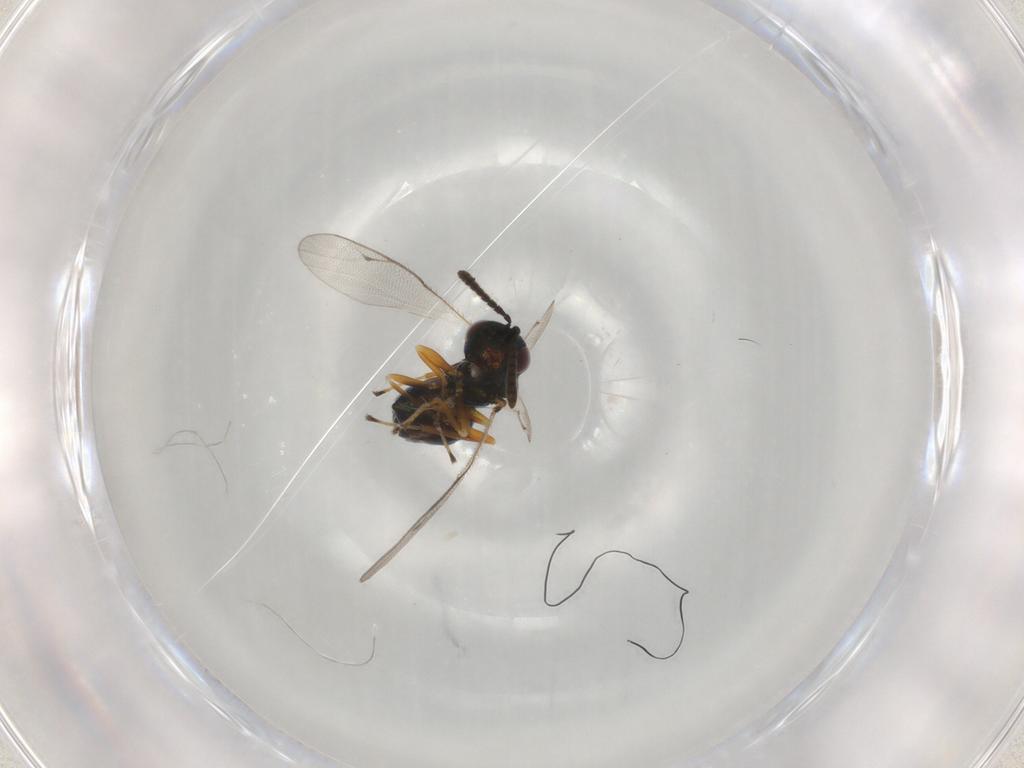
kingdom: Animalia
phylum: Arthropoda
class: Insecta
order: Hymenoptera
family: Pteromalidae
